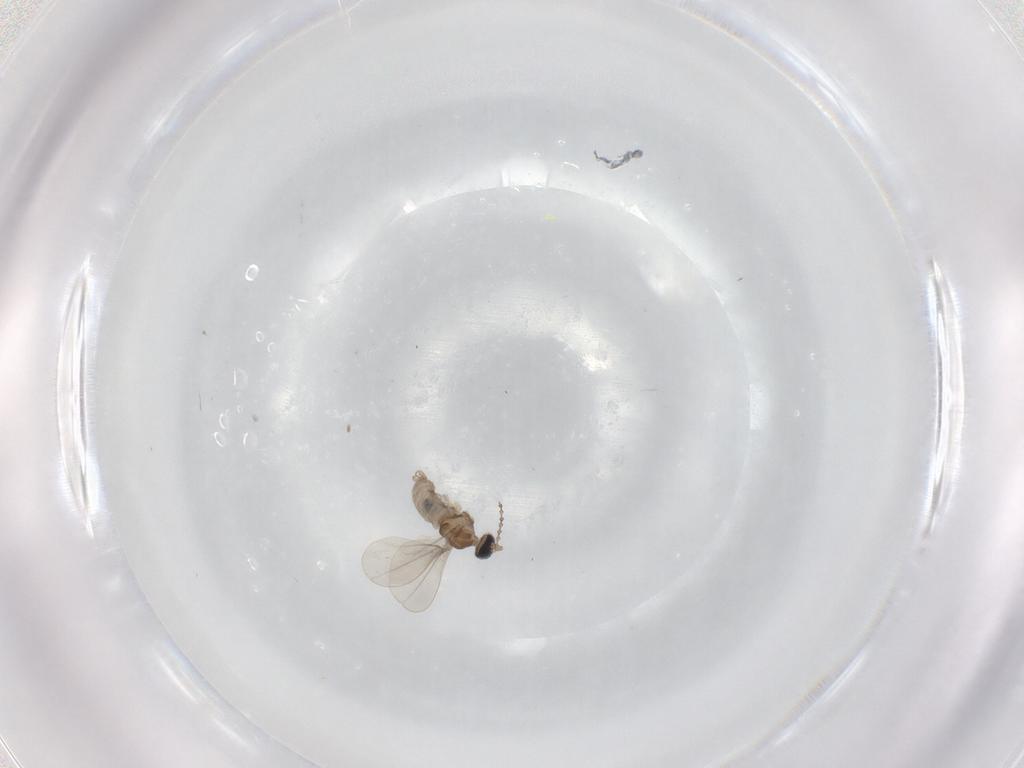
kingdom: Animalia
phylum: Arthropoda
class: Insecta
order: Diptera
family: Cecidomyiidae
